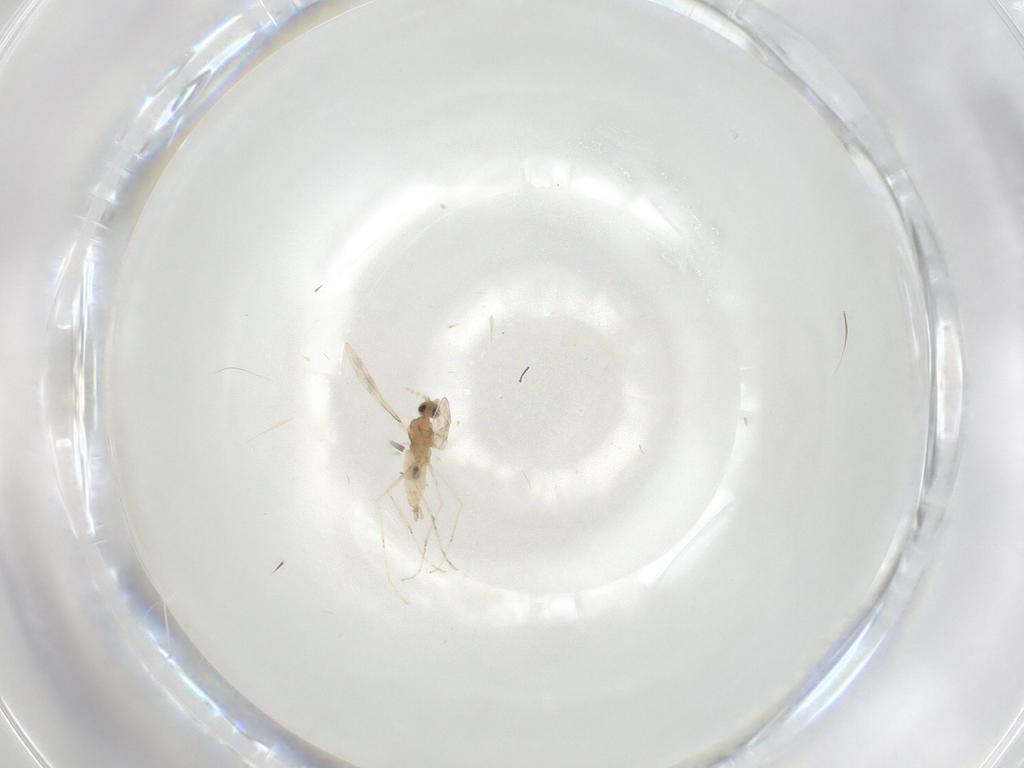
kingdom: Animalia
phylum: Arthropoda
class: Insecta
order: Diptera
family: Cecidomyiidae
